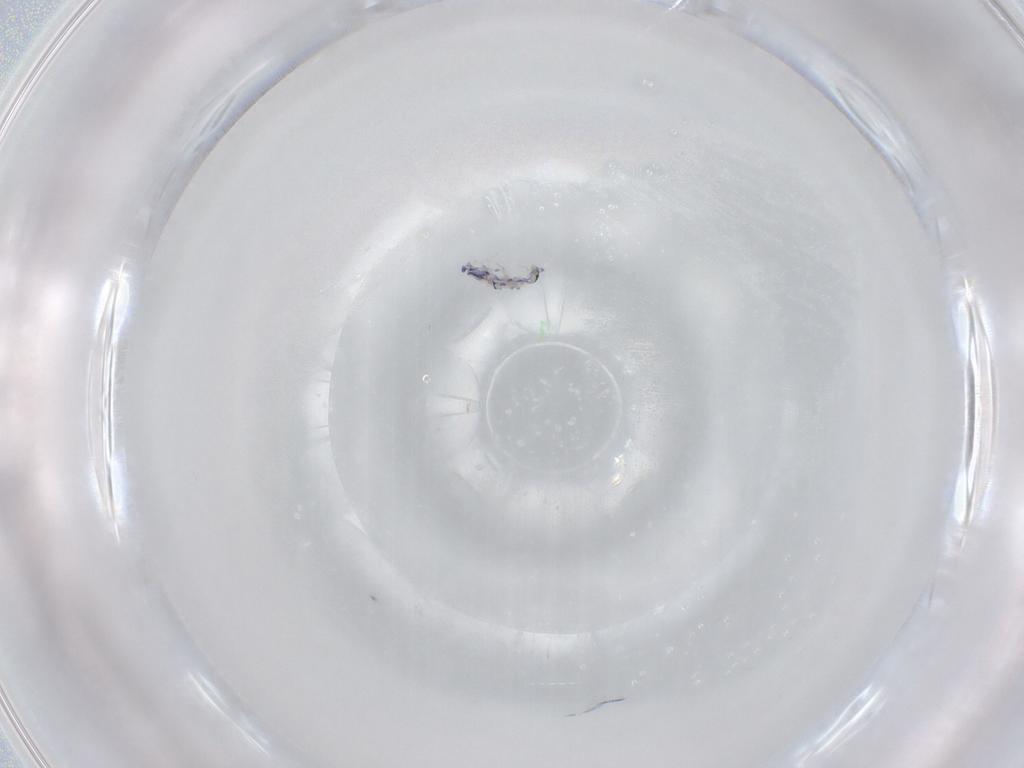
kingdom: Animalia
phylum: Arthropoda
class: Collembola
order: Entomobryomorpha
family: Entomobryidae
